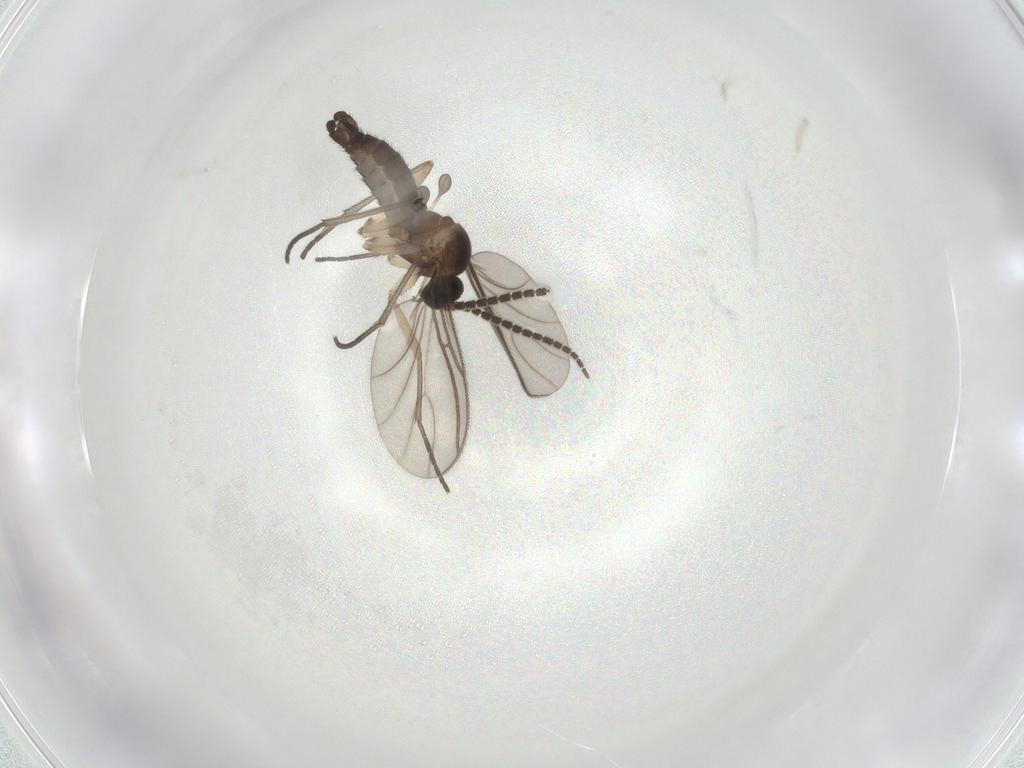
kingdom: Animalia
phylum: Arthropoda
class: Insecta
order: Diptera
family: Sciaridae
